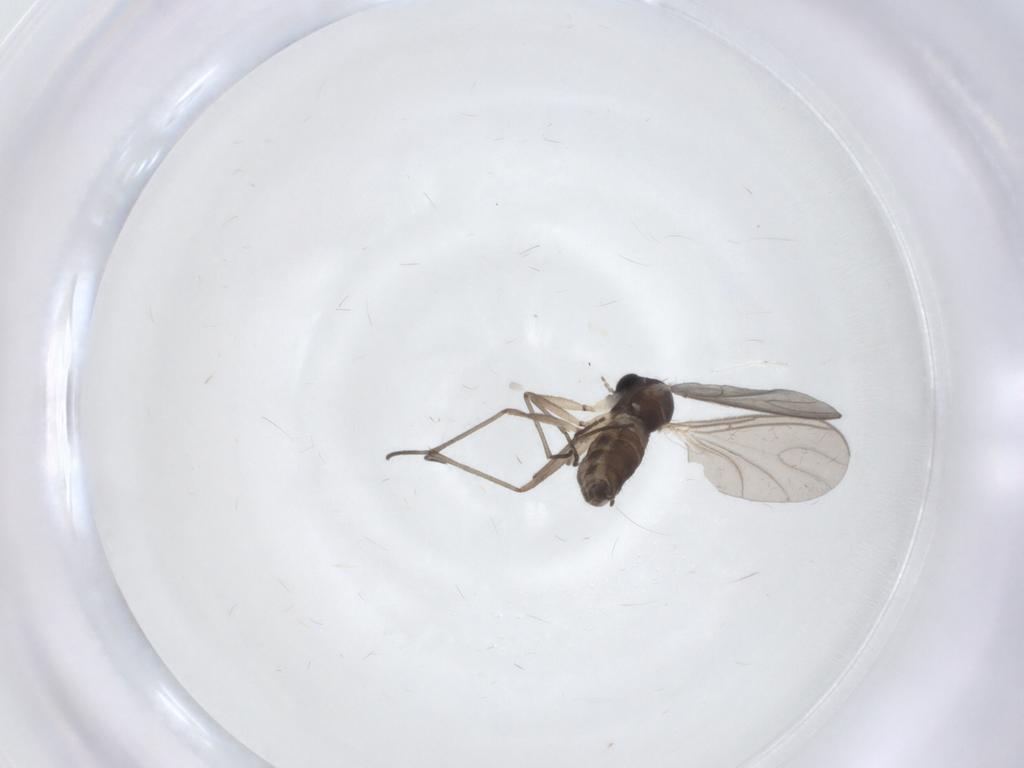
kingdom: Animalia
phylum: Arthropoda
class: Insecta
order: Diptera
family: Sciaridae
